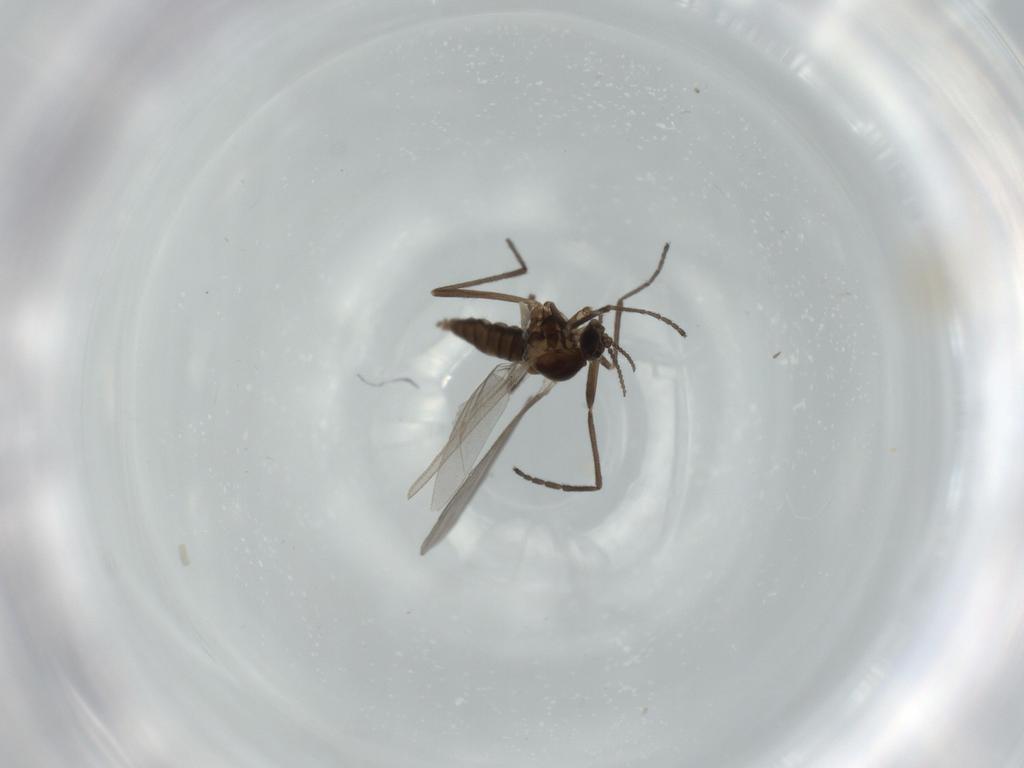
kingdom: Animalia
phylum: Arthropoda
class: Insecta
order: Diptera
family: Cecidomyiidae
